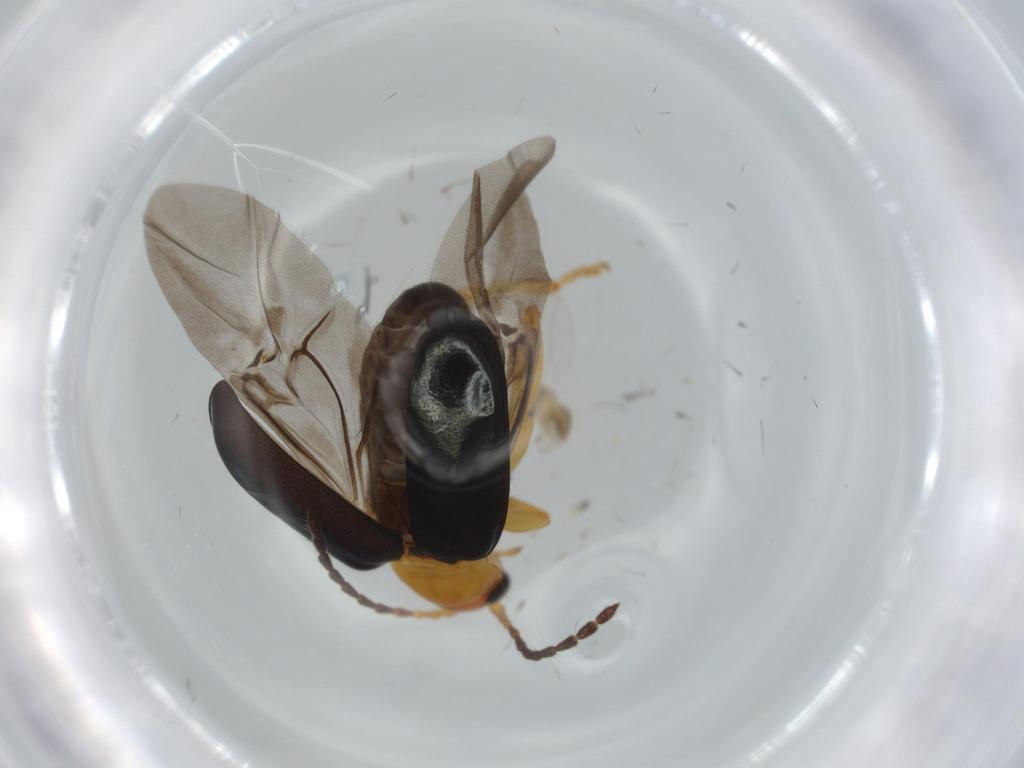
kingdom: Animalia
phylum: Arthropoda
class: Insecta
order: Coleoptera
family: Chrysomelidae
